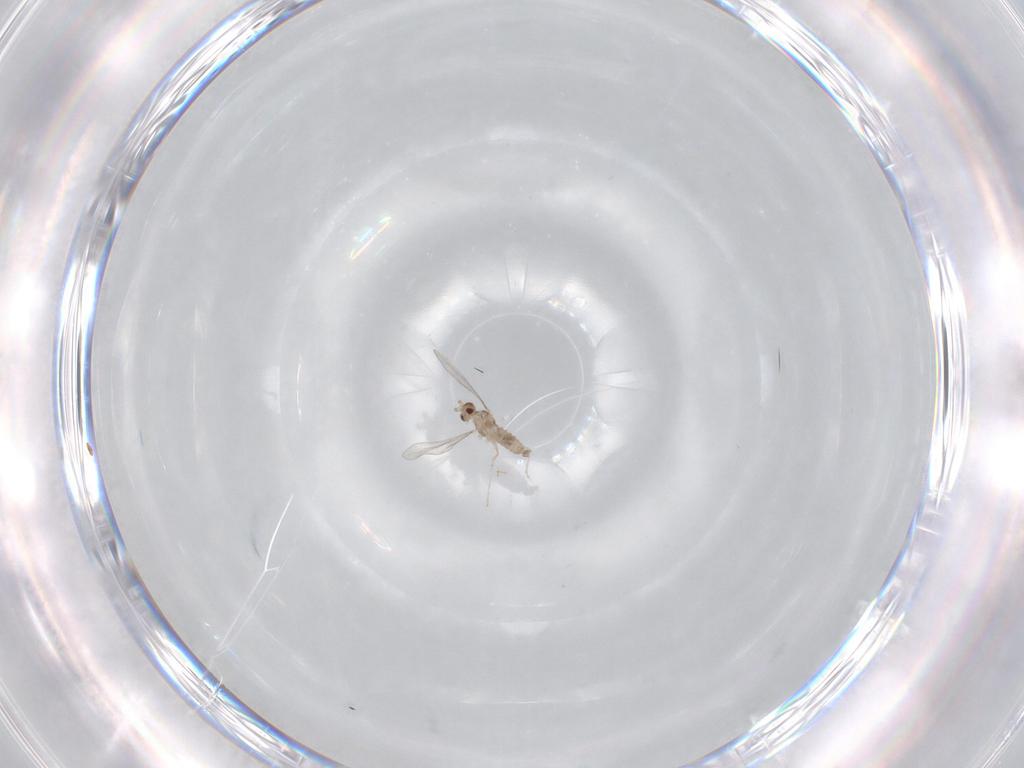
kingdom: Animalia
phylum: Arthropoda
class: Insecta
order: Diptera
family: Cecidomyiidae
